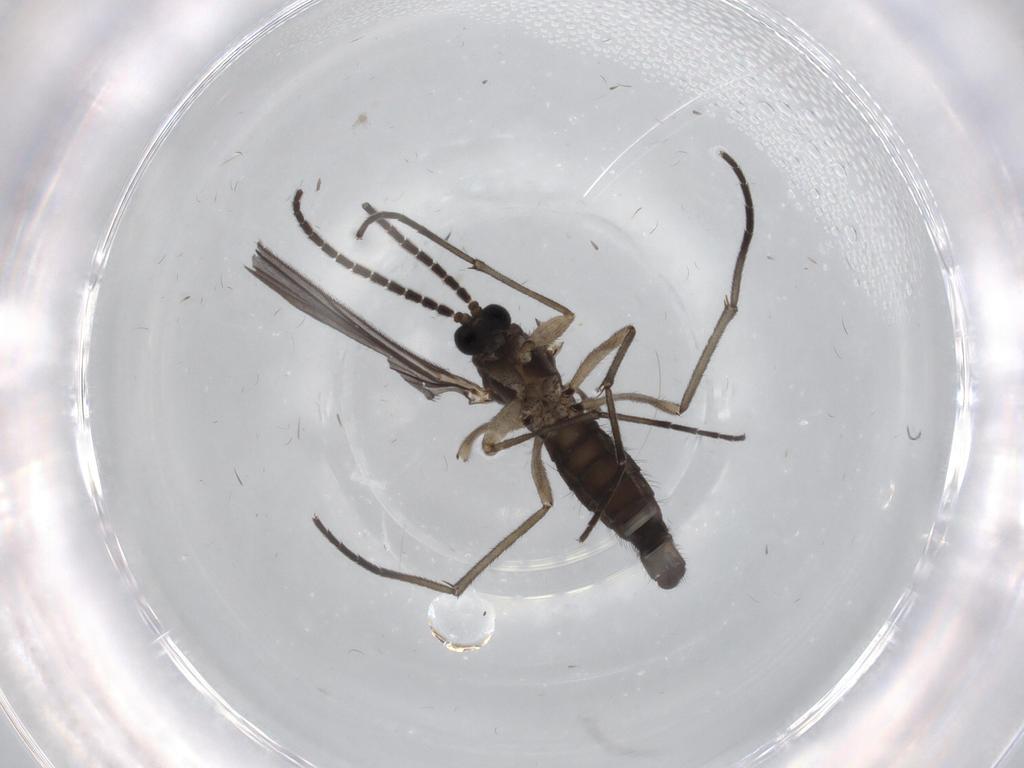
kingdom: Animalia
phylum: Arthropoda
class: Insecta
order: Diptera
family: Sciaridae
